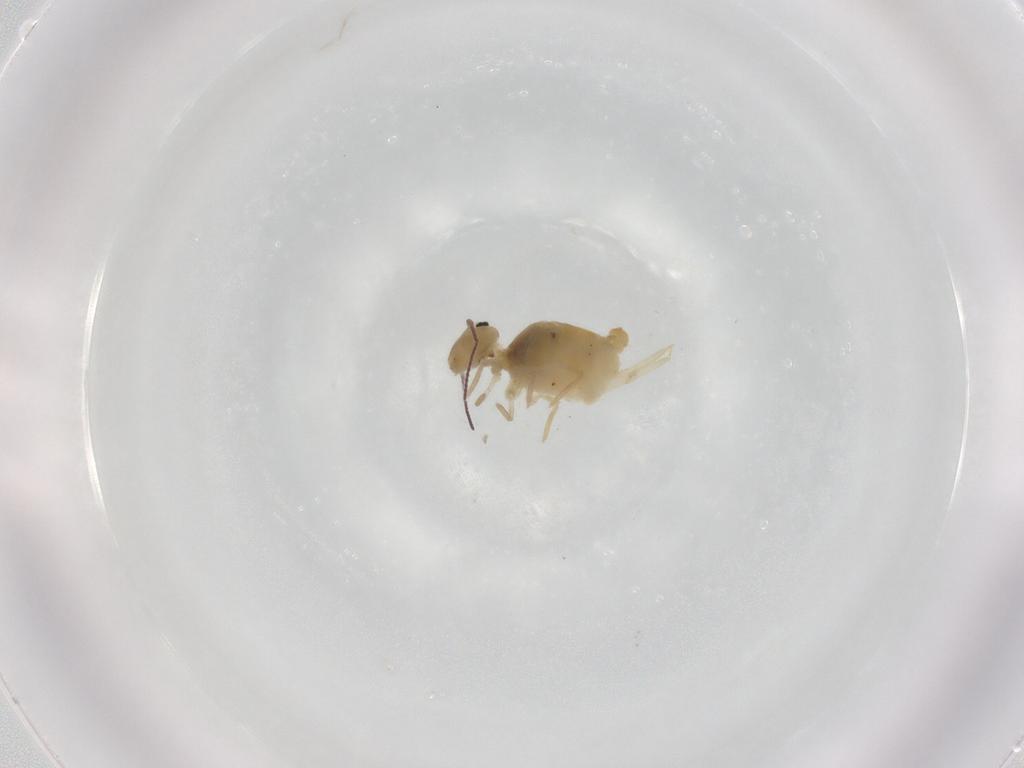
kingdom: Animalia
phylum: Arthropoda
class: Collembola
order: Symphypleona
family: Bourletiellidae
